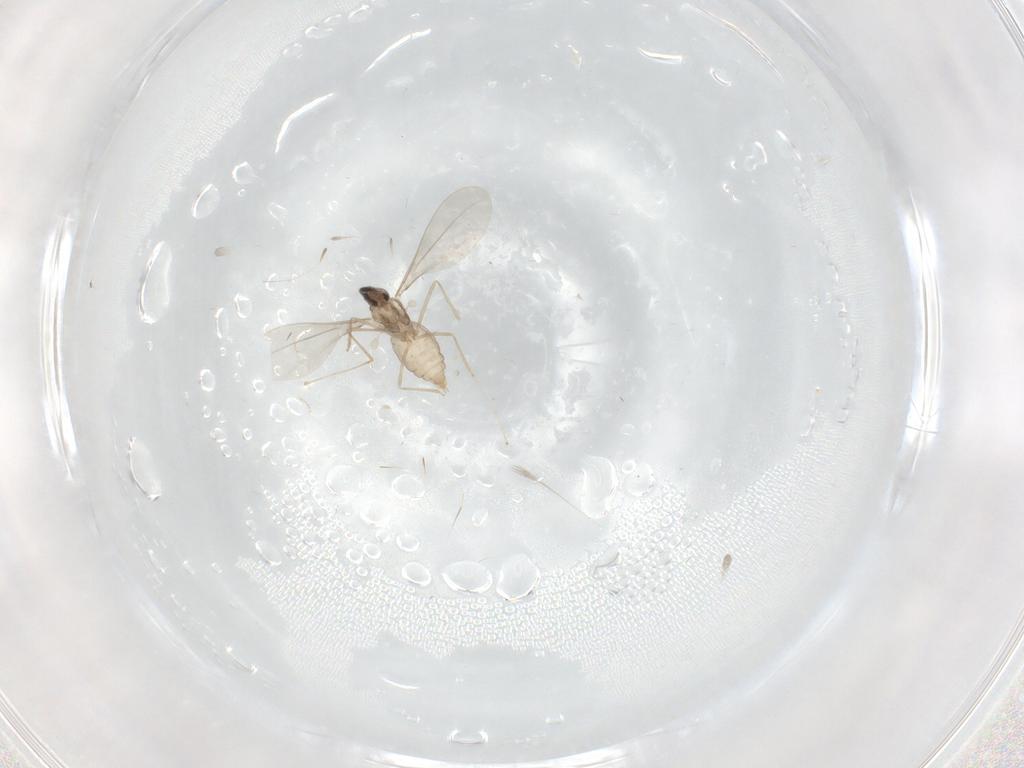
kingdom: Animalia
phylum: Arthropoda
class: Insecta
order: Diptera
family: Cecidomyiidae
